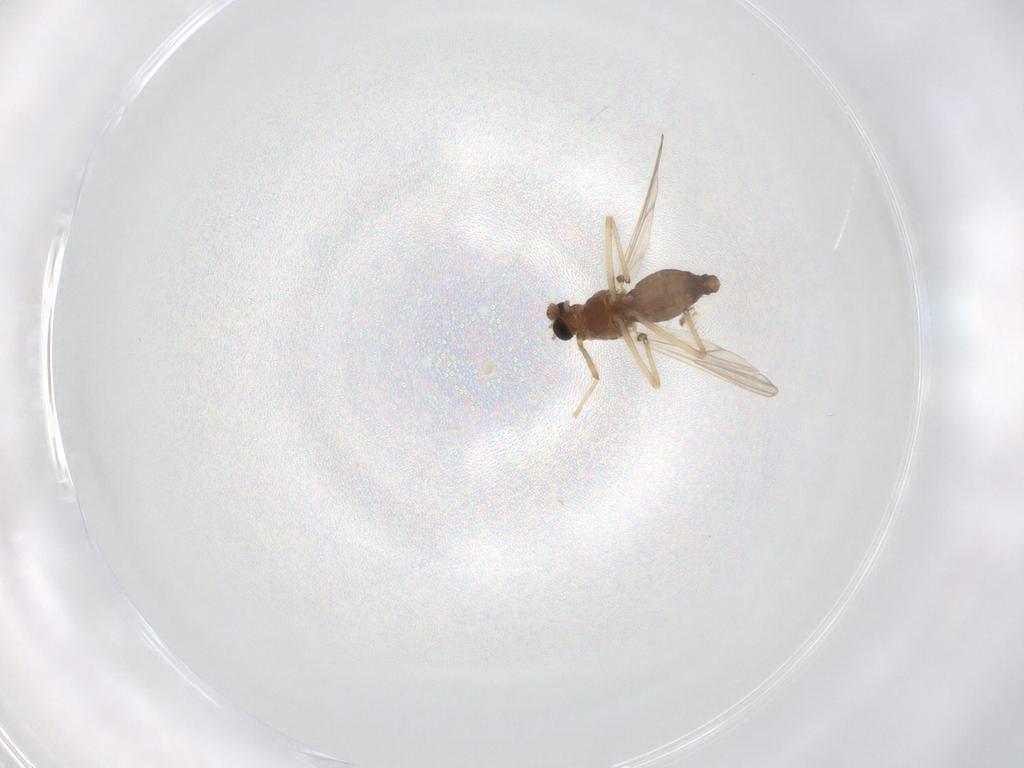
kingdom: Animalia
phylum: Arthropoda
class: Insecta
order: Diptera
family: Chironomidae
